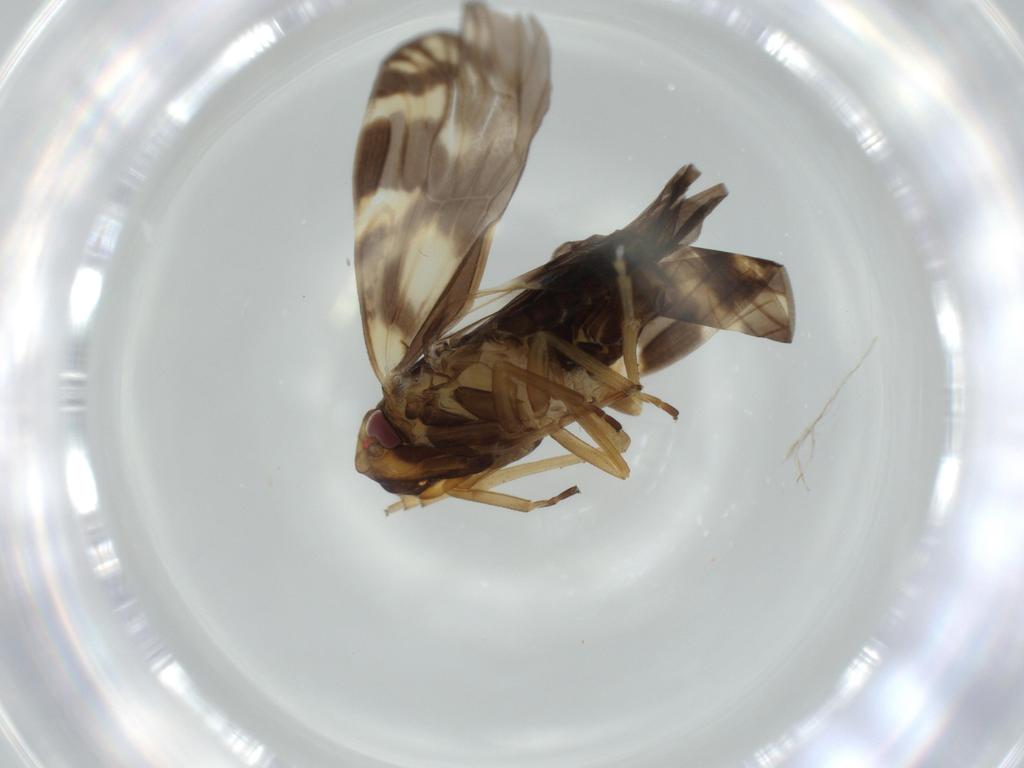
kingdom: Animalia
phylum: Arthropoda
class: Insecta
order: Hemiptera
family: Cixiidae
